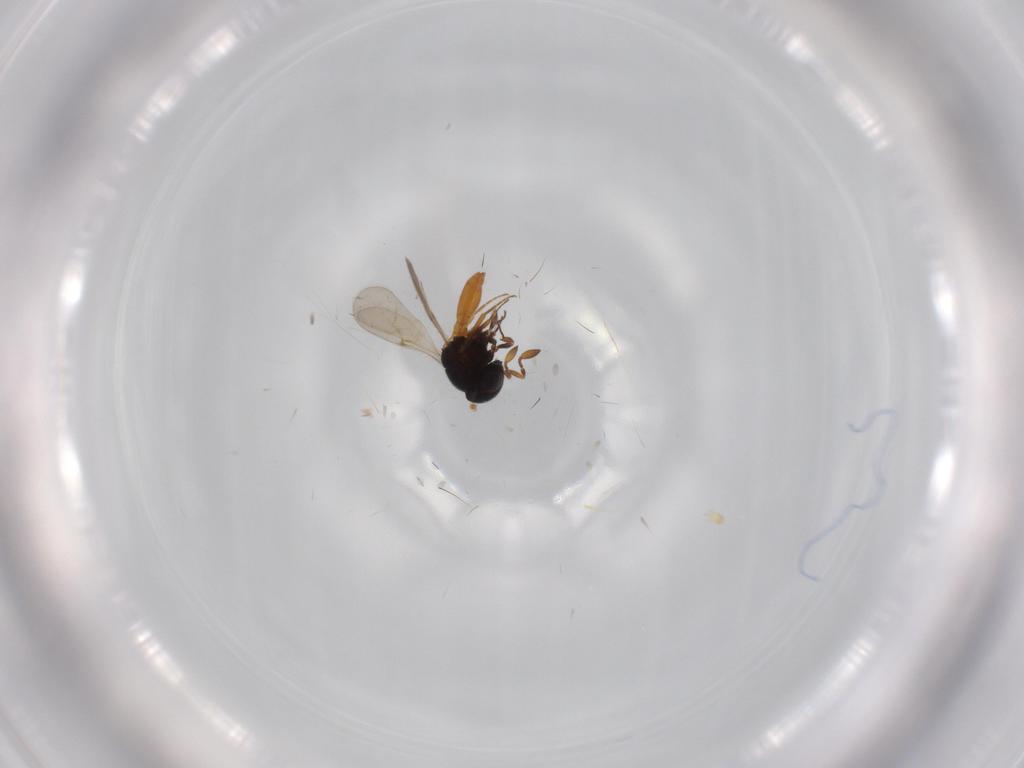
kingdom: Animalia
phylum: Arthropoda
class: Insecta
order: Hymenoptera
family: Scelionidae
